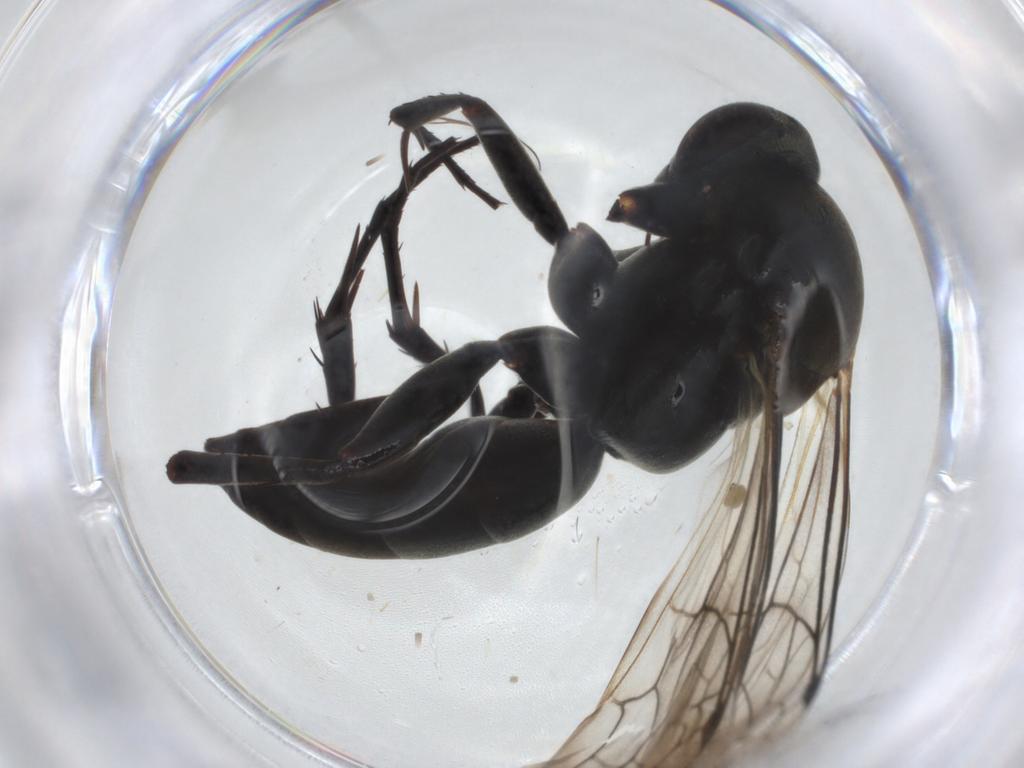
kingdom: Animalia
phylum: Arthropoda
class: Insecta
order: Hymenoptera
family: Pompilidae
